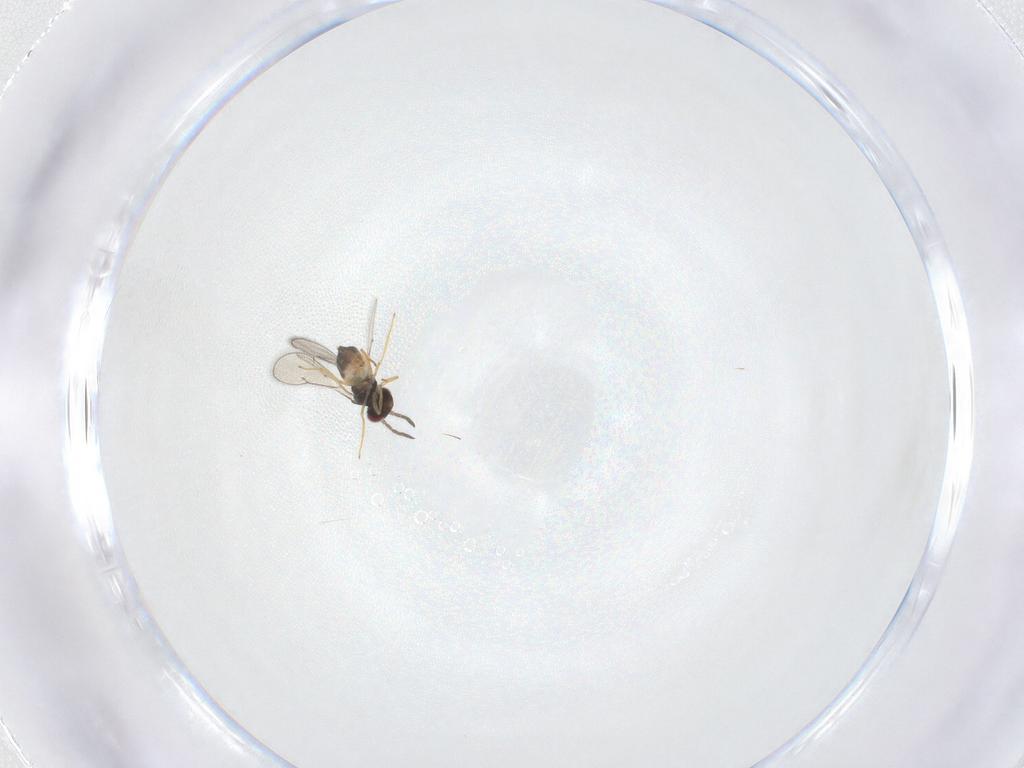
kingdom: Animalia
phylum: Arthropoda
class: Insecta
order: Hymenoptera
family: Eulophidae
